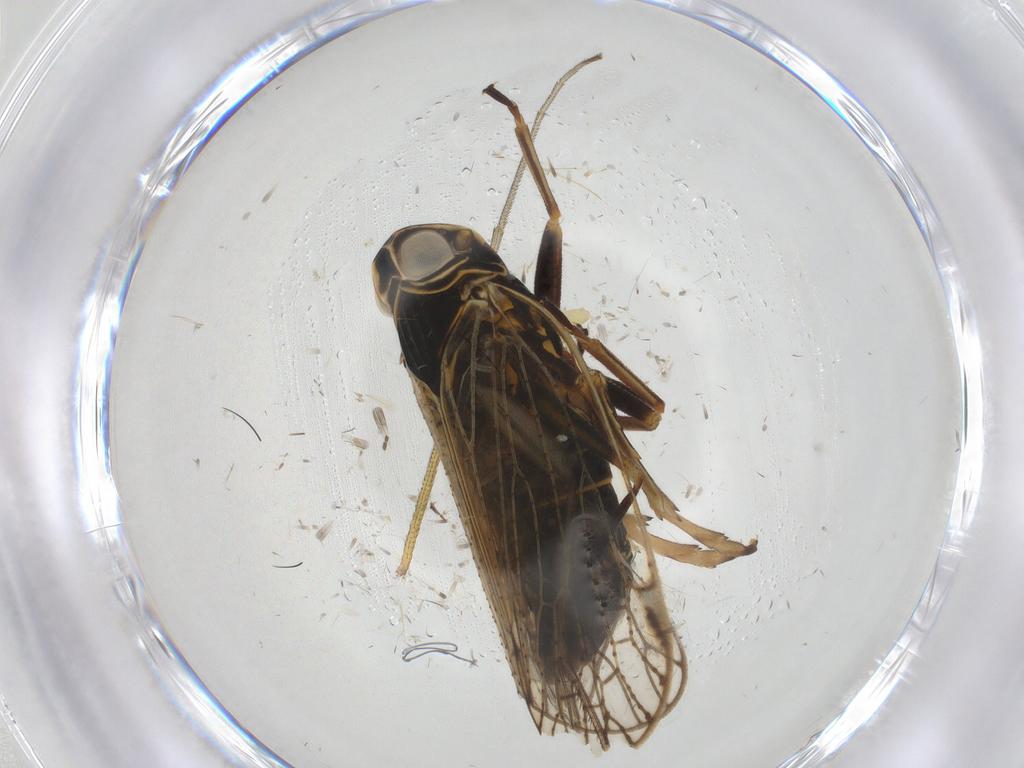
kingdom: Animalia
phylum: Arthropoda
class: Insecta
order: Hemiptera
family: Cixiidae
